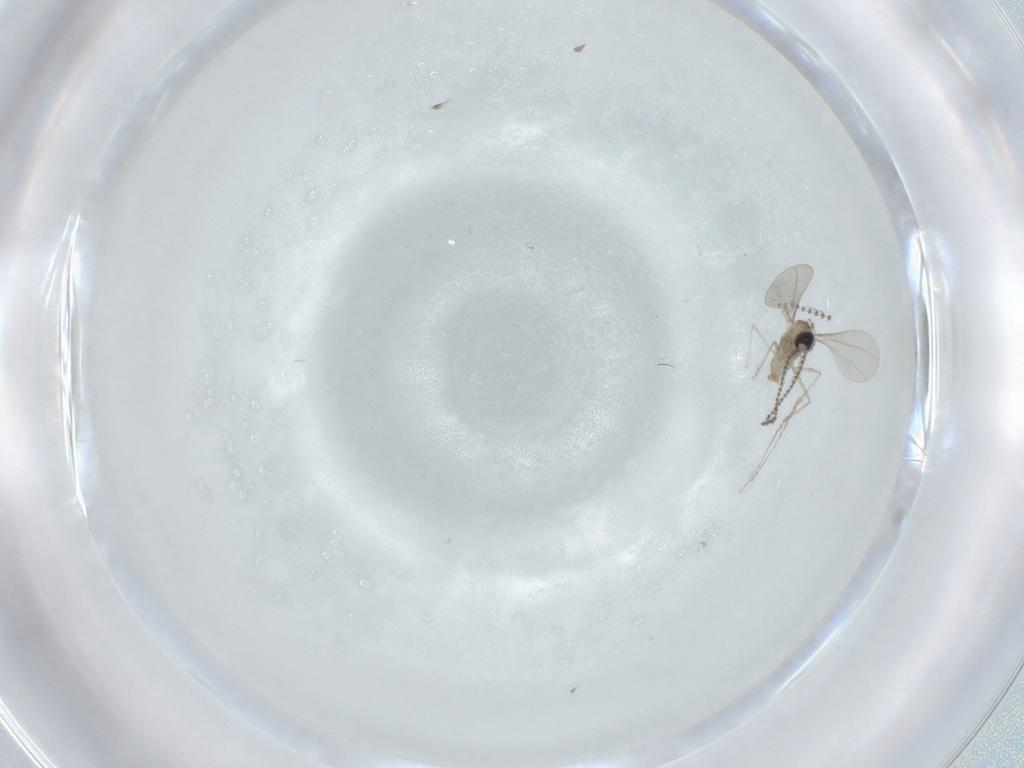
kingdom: Animalia
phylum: Arthropoda
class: Insecta
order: Diptera
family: Cecidomyiidae
